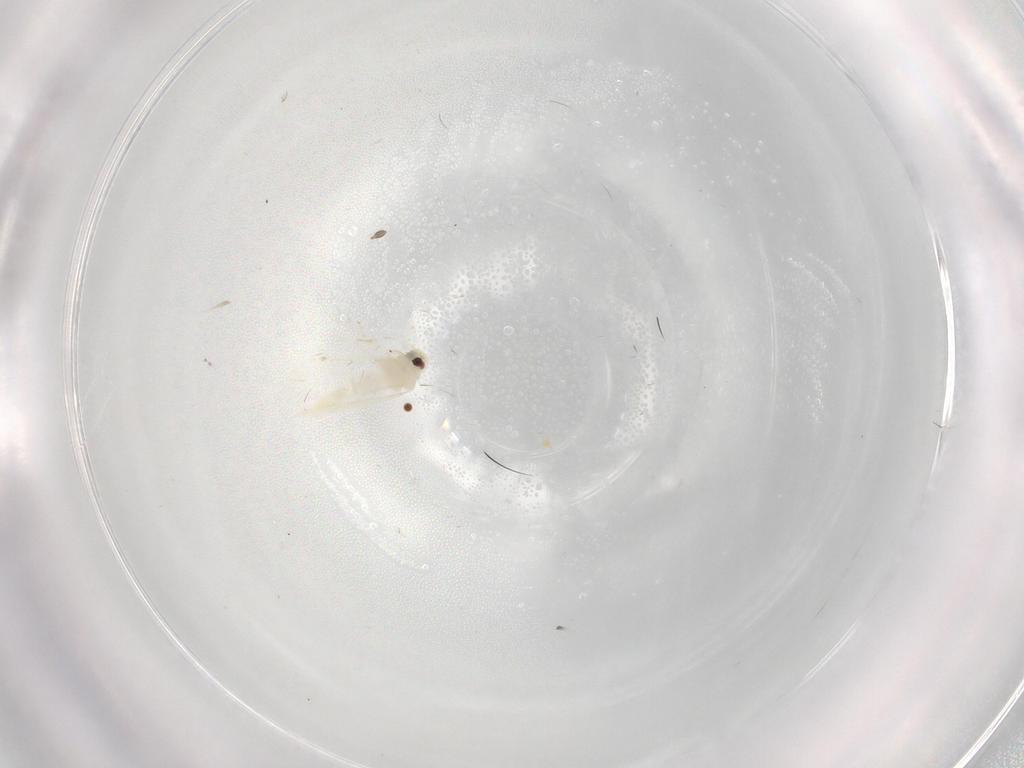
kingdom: Animalia
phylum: Arthropoda
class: Insecta
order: Hemiptera
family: Aleyrodidae
